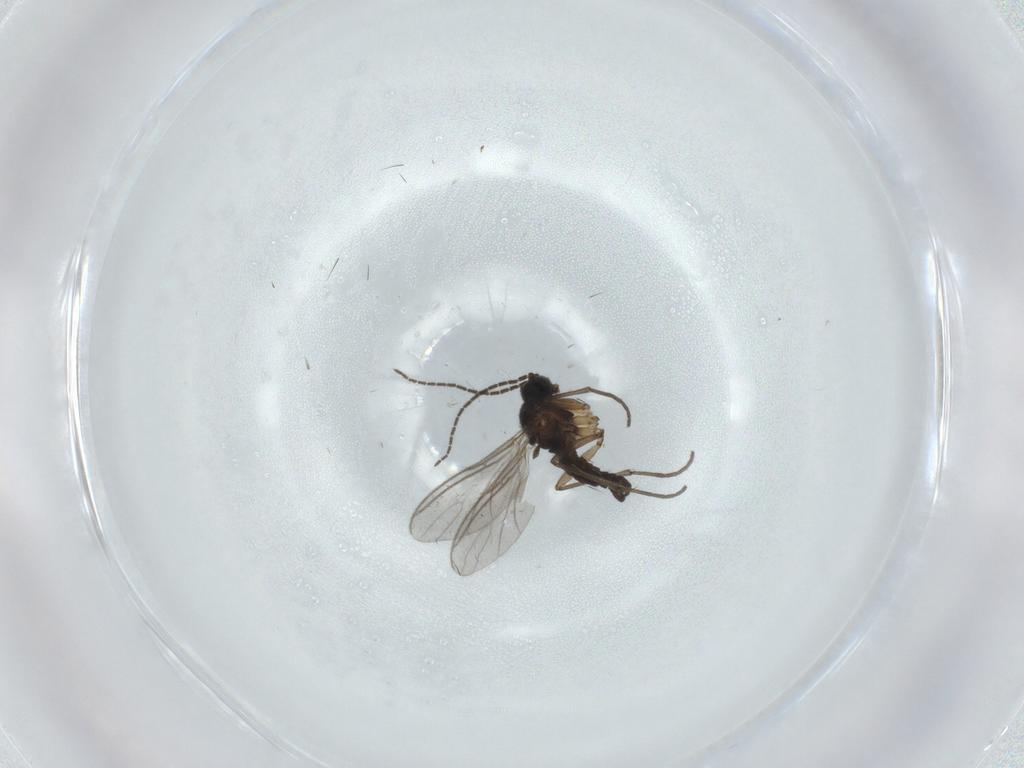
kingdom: Animalia
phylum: Arthropoda
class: Insecta
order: Diptera
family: Sciaridae
